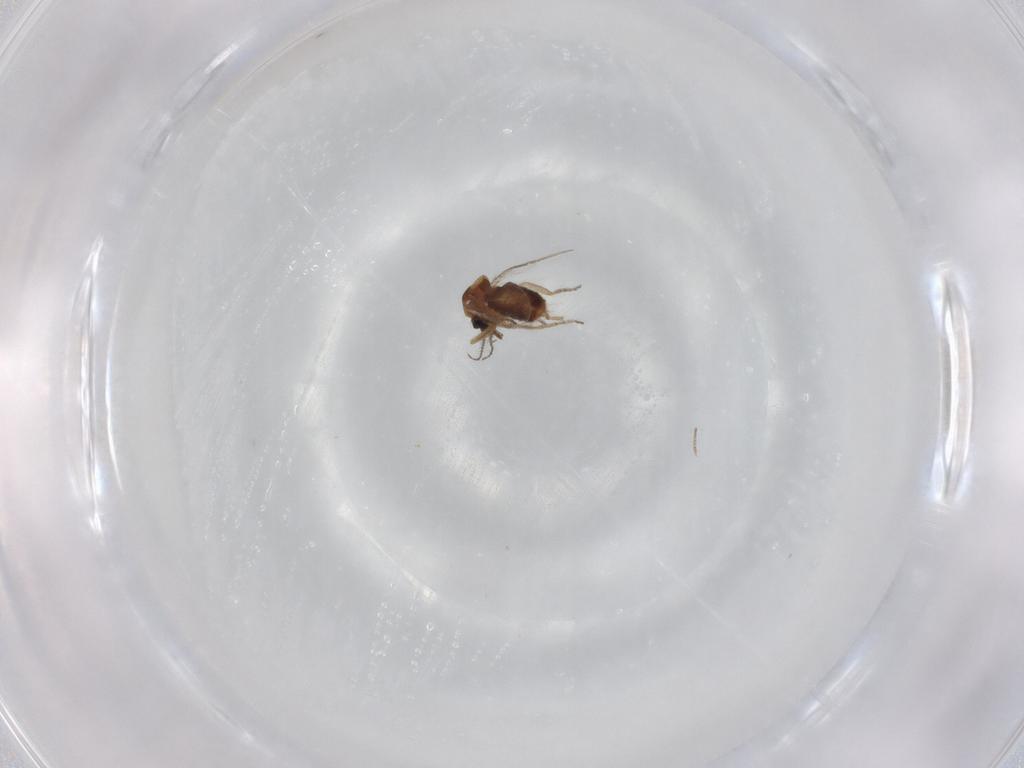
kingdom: Animalia
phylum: Arthropoda
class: Insecta
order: Diptera
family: Ceratopogonidae
